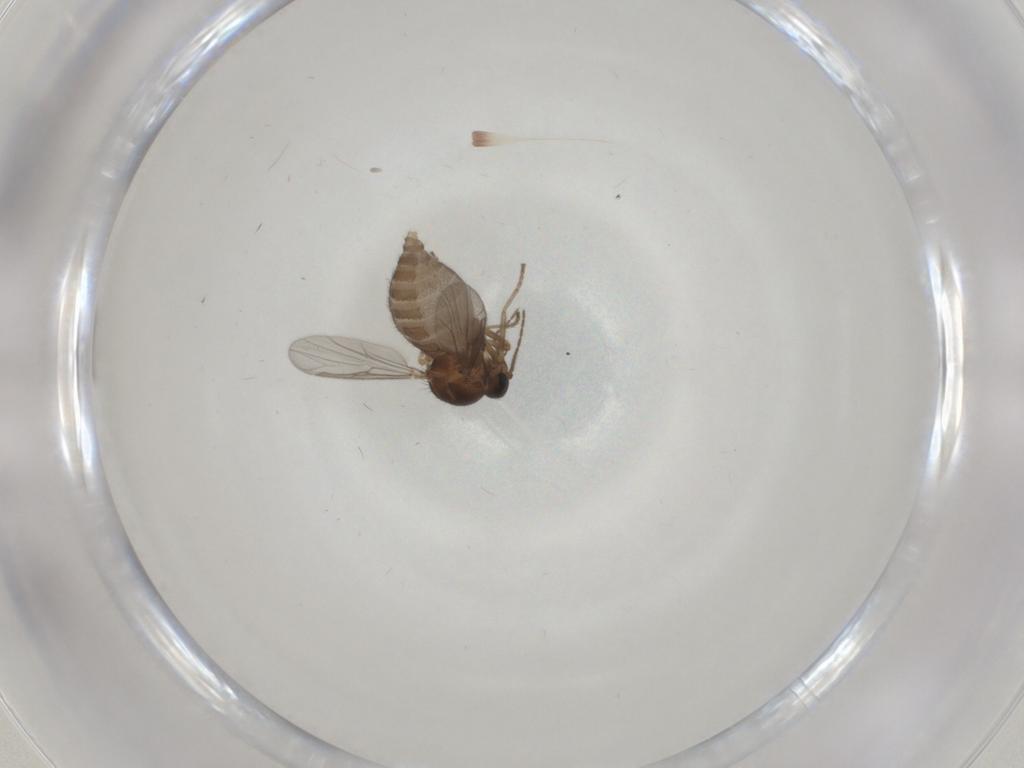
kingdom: Animalia
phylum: Arthropoda
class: Insecta
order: Diptera
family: Ceratopogonidae
